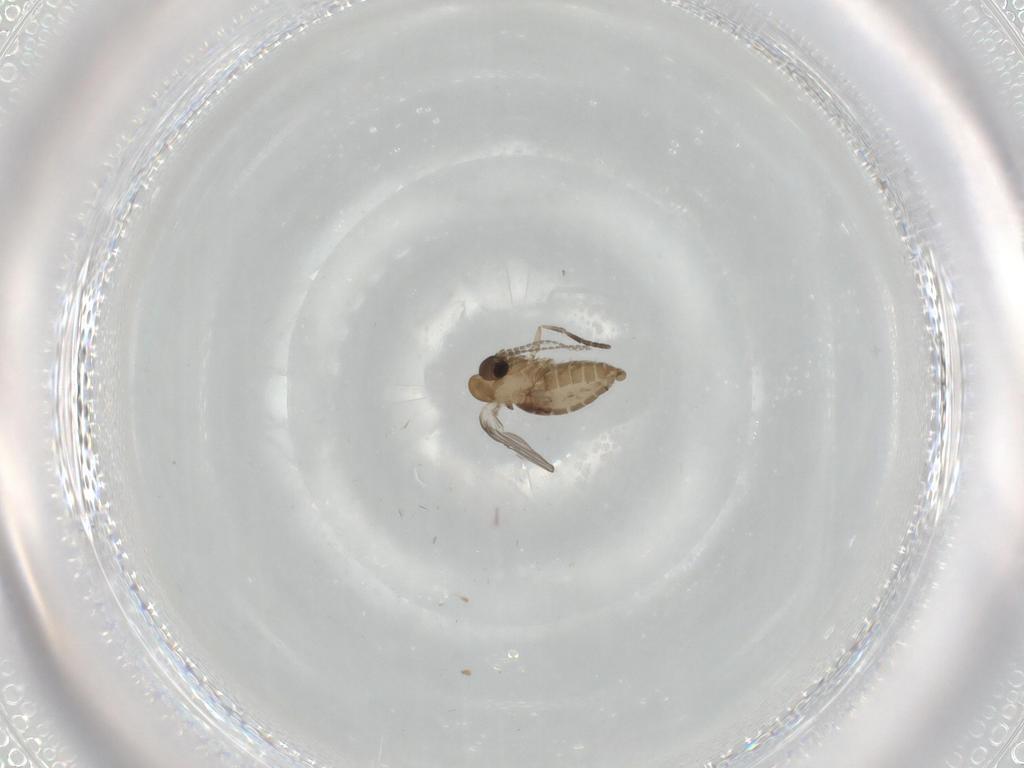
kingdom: Animalia
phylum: Arthropoda
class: Insecta
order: Diptera
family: Psychodidae
